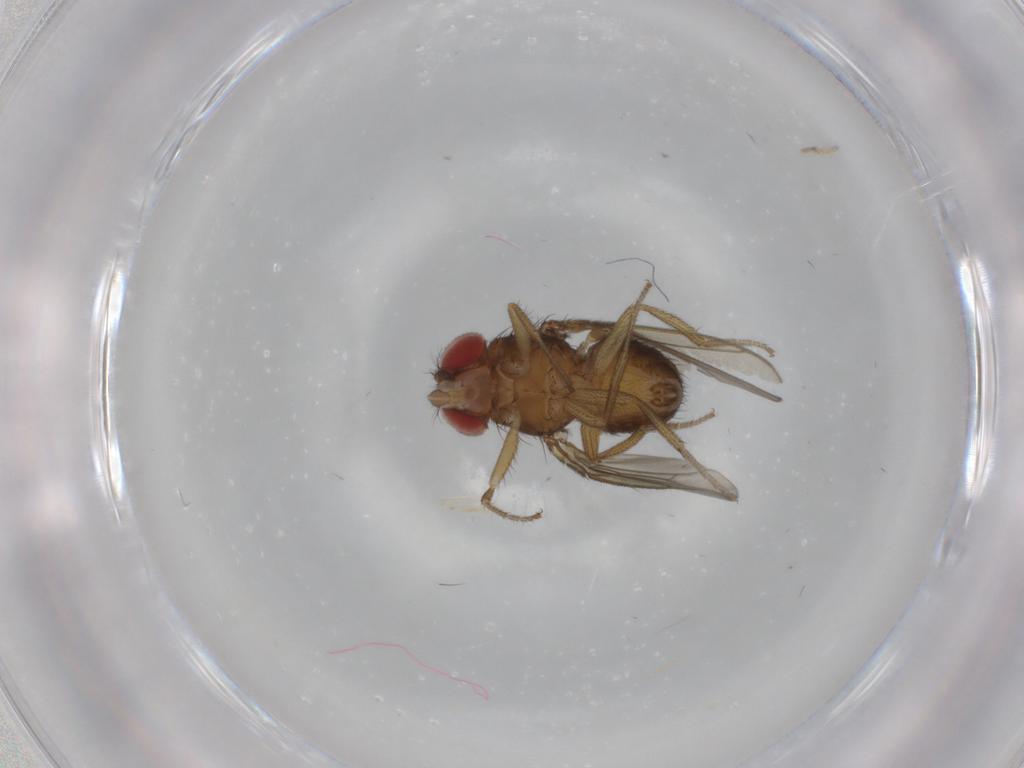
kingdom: Animalia
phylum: Arthropoda
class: Insecta
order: Diptera
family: Drosophilidae
